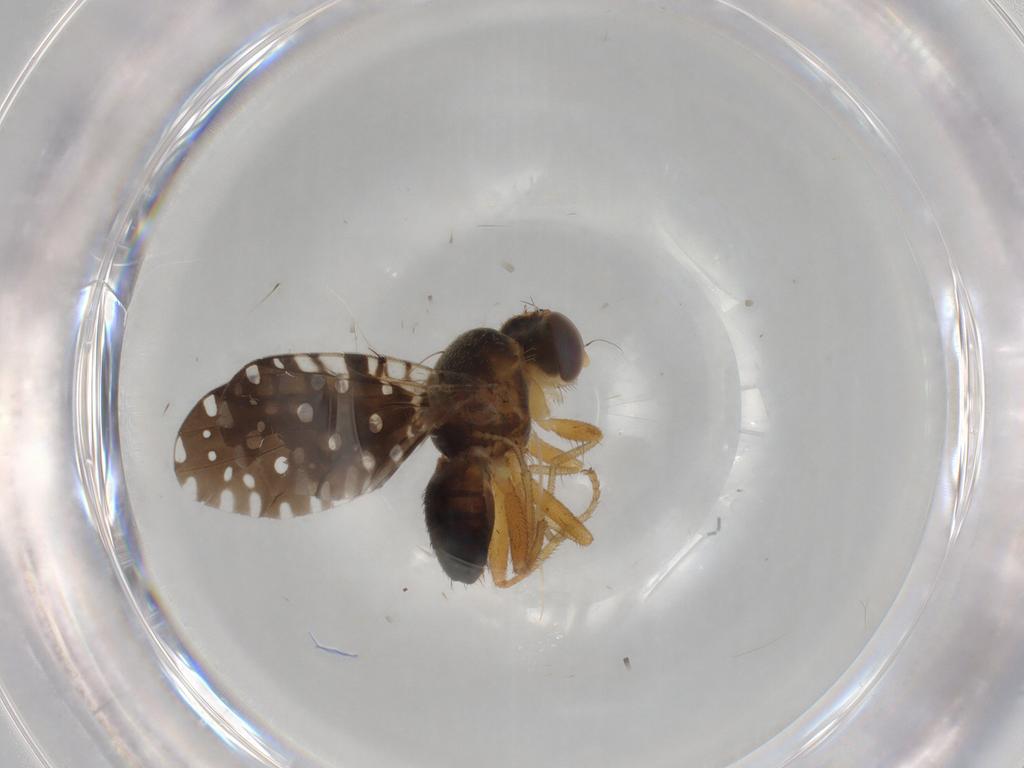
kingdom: Animalia
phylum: Arthropoda
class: Insecta
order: Diptera
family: Tephritidae
